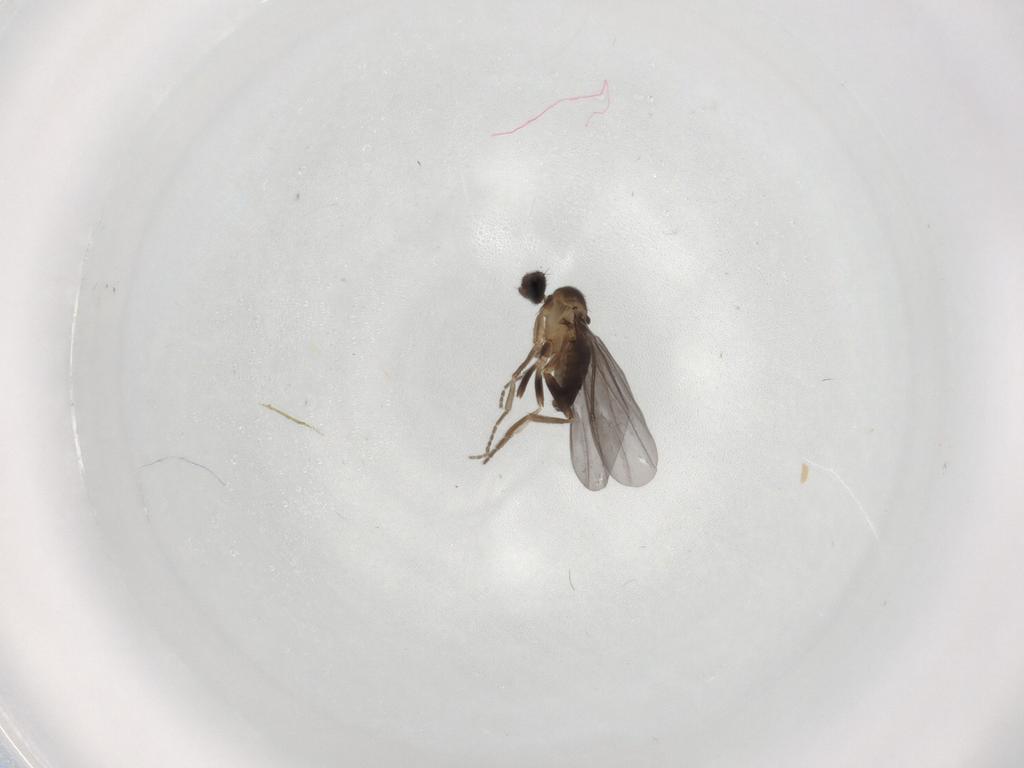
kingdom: Animalia
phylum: Arthropoda
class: Insecta
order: Diptera
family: Phoridae
